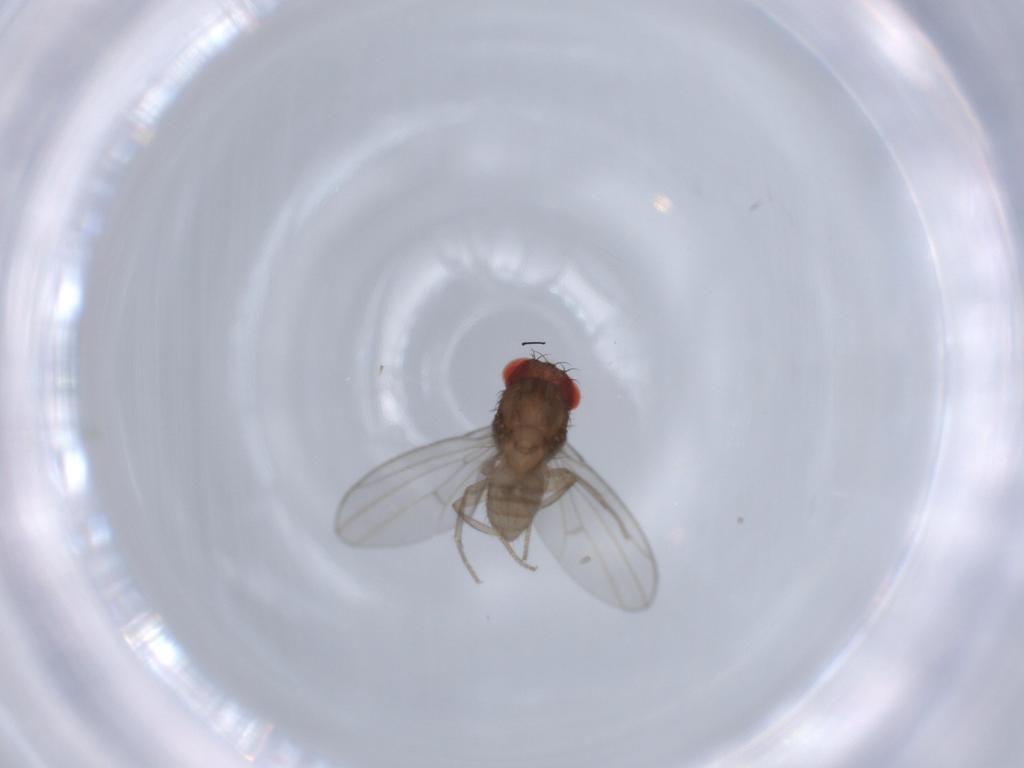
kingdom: Animalia
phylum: Arthropoda
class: Insecta
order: Diptera
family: Drosophilidae
